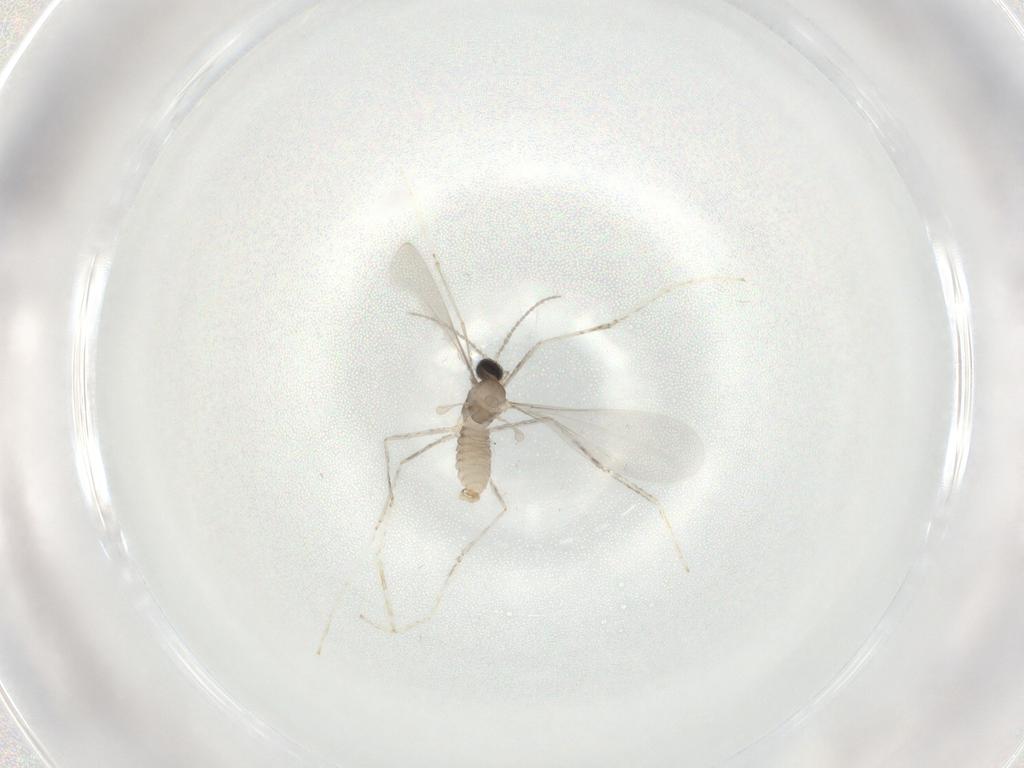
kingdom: Animalia
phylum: Arthropoda
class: Insecta
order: Diptera
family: Cecidomyiidae
